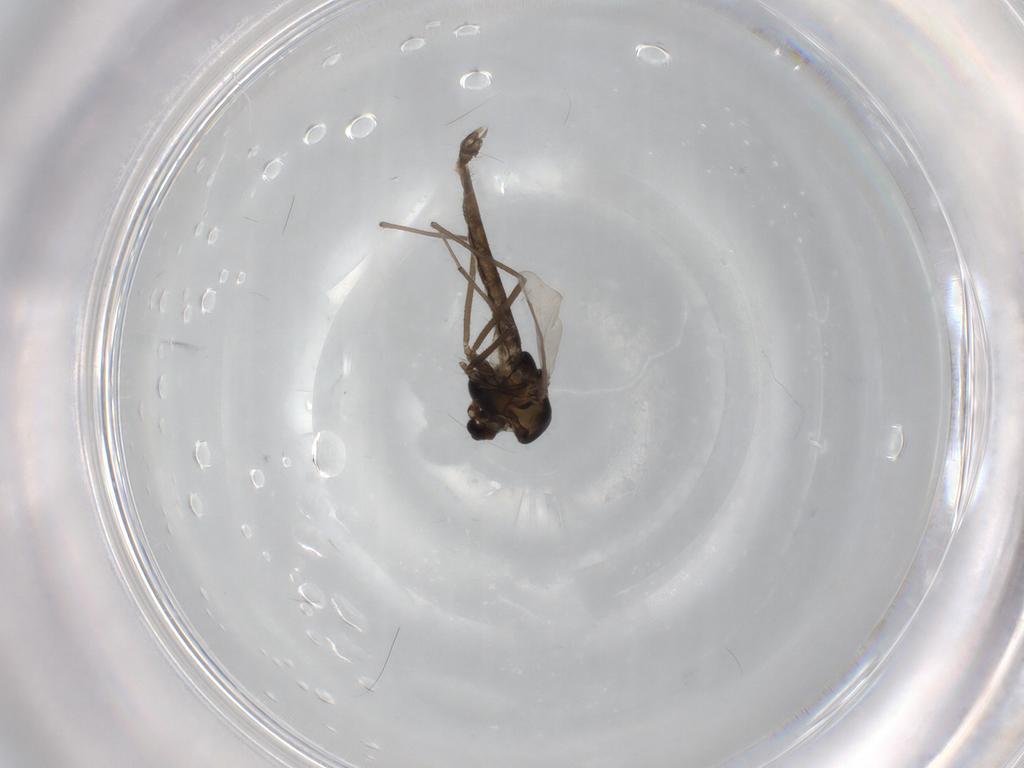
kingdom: Animalia
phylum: Arthropoda
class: Insecta
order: Diptera
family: Chironomidae
